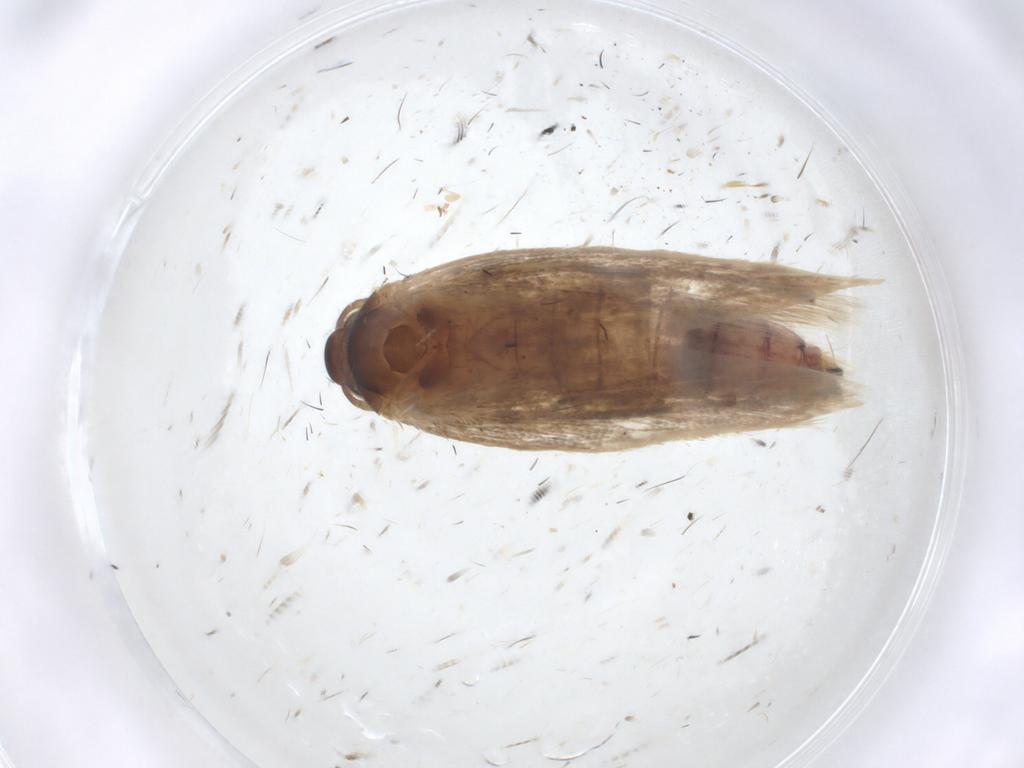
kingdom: Animalia
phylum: Arthropoda
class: Insecta
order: Lepidoptera
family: Cosmopterigidae
